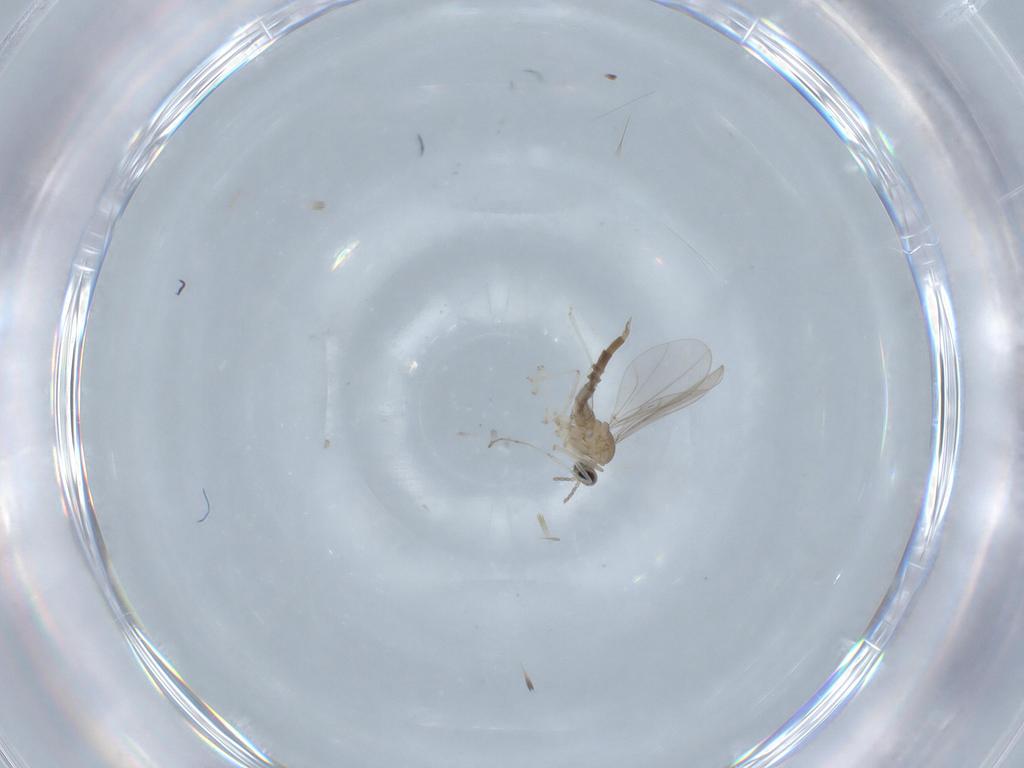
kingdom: Animalia
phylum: Arthropoda
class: Insecta
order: Diptera
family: Cecidomyiidae
